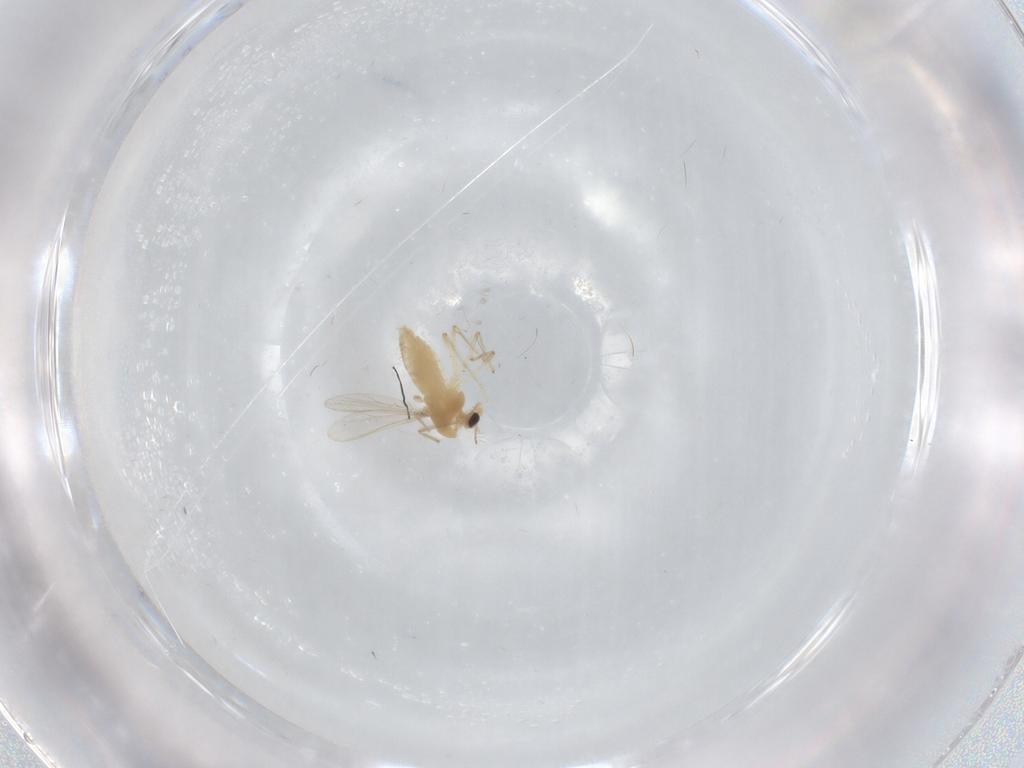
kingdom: Animalia
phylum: Arthropoda
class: Insecta
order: Diptera
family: Chironomidae
